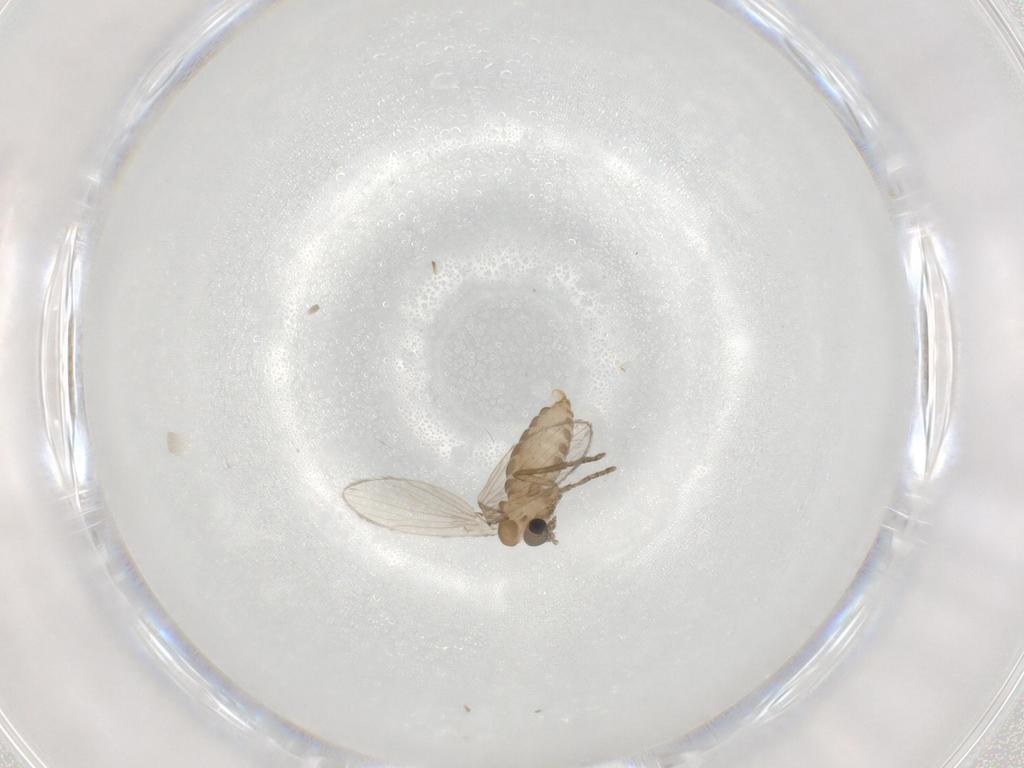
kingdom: Animalia
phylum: Arthropoda
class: Insecta
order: Diptera
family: Psychodidae
